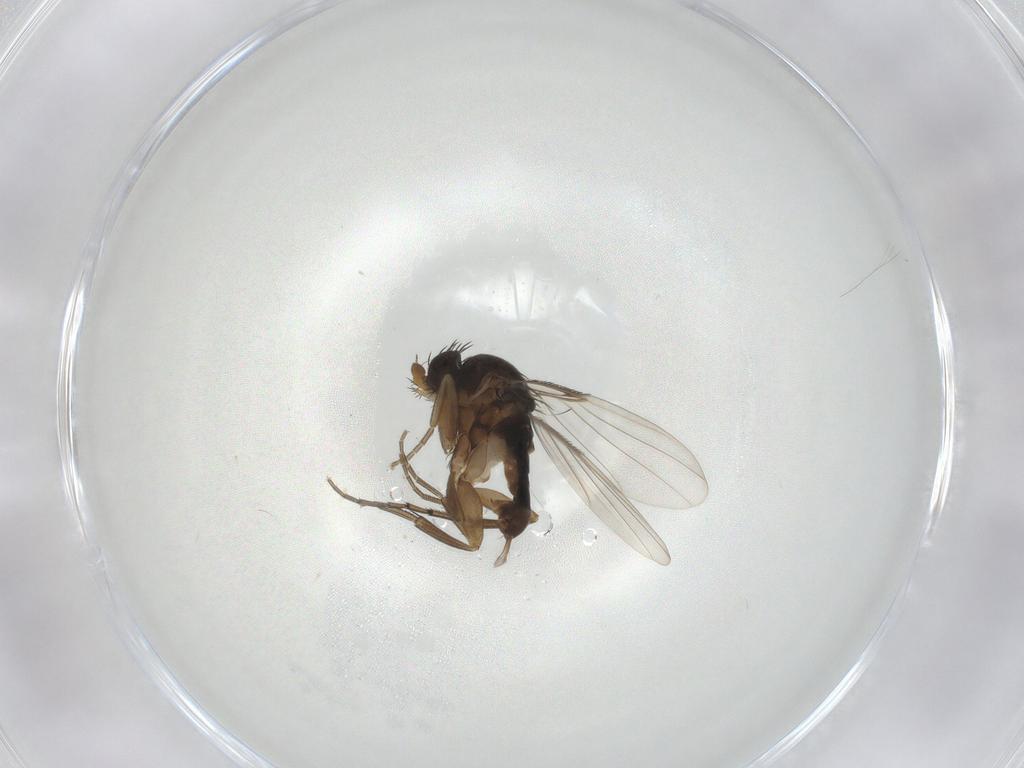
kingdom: Animalia
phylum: Arthropoda
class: Insecta
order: Diptera
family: Phoridae
